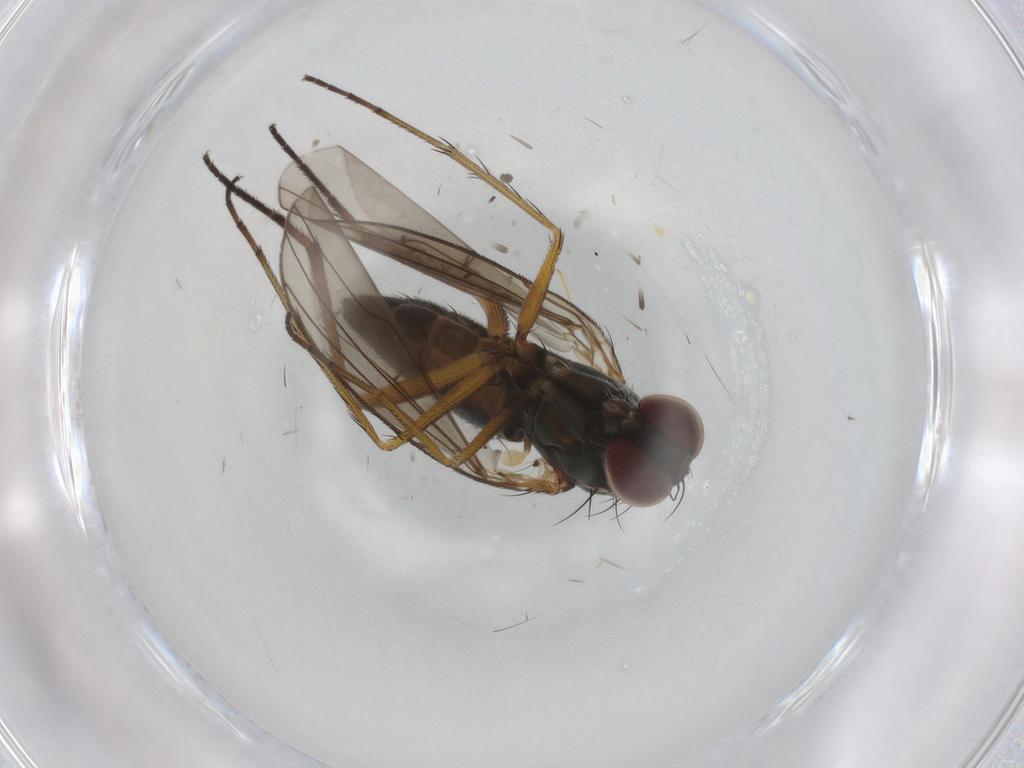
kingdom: Animalia
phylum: Arthropoda
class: Insecta
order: Diptera
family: Dolichopodidae
